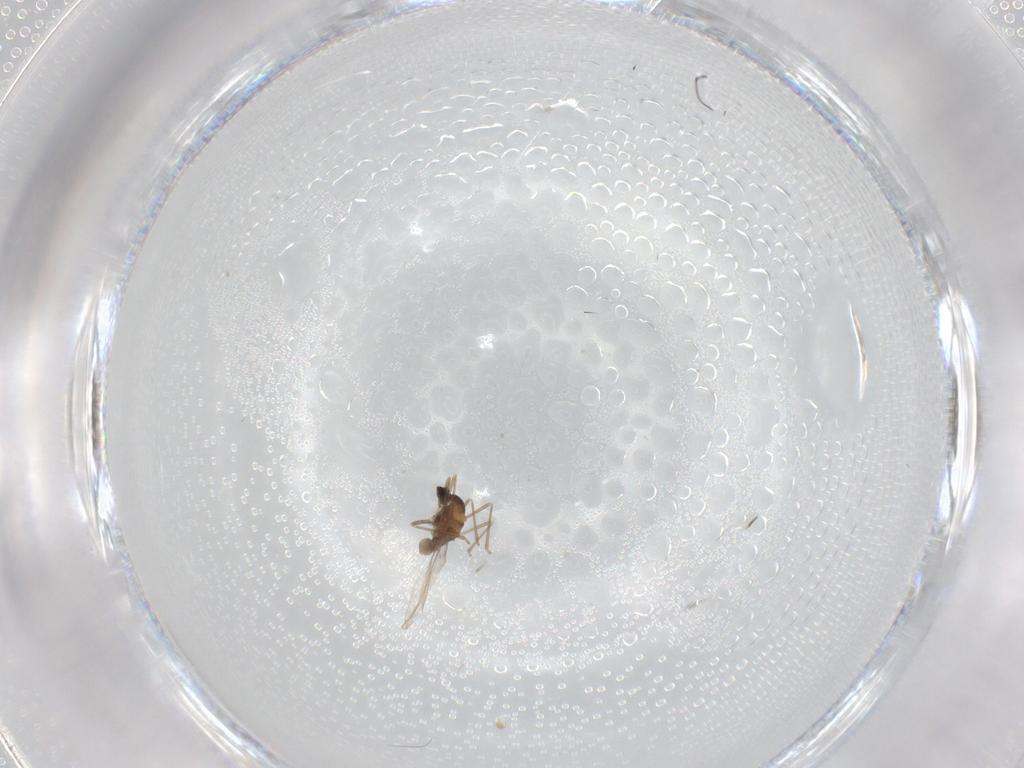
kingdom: Animalia
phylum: Arthropoda
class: Insecta
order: Diptera
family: Cecidomyiidae
